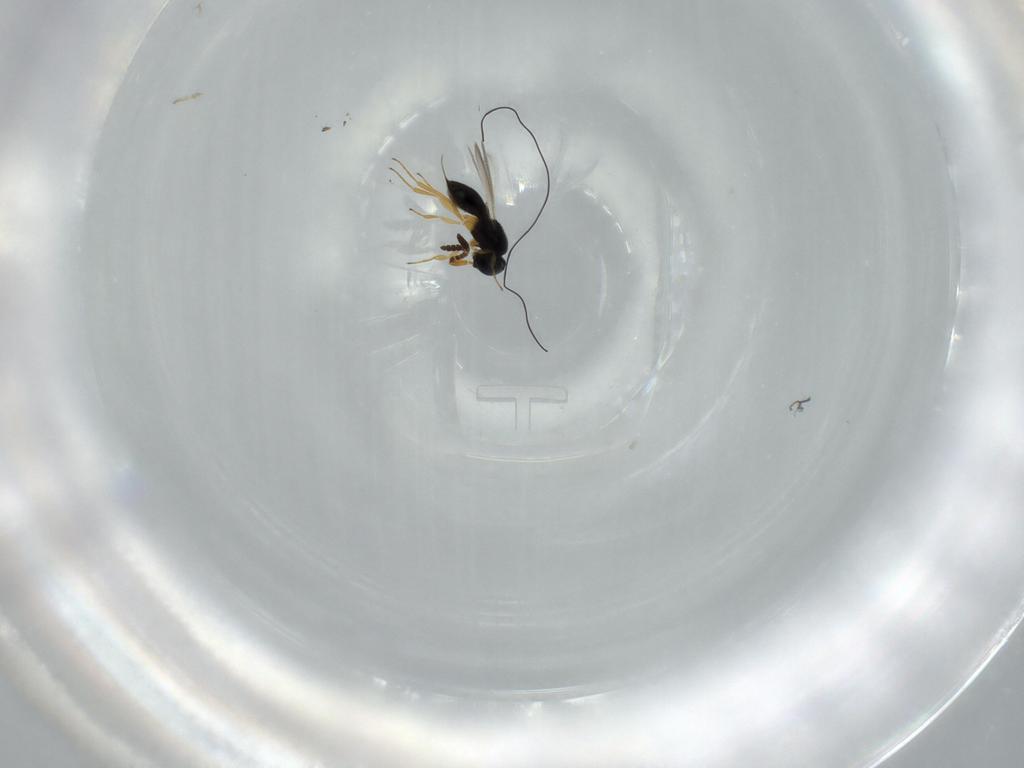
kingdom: Animalia
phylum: Arthropoda
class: Insecta
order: Hymenoptera
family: Scelionidae
